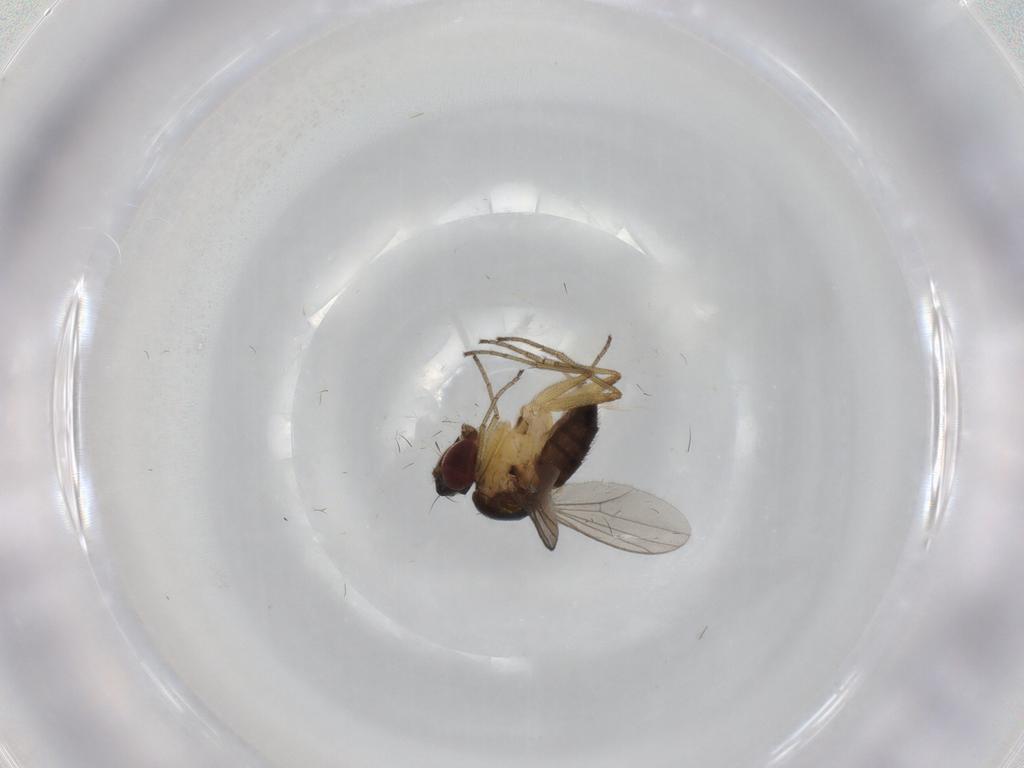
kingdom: Animalia
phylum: Arthropoda
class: Insecta
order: Diptera
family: Dolichopodidae
